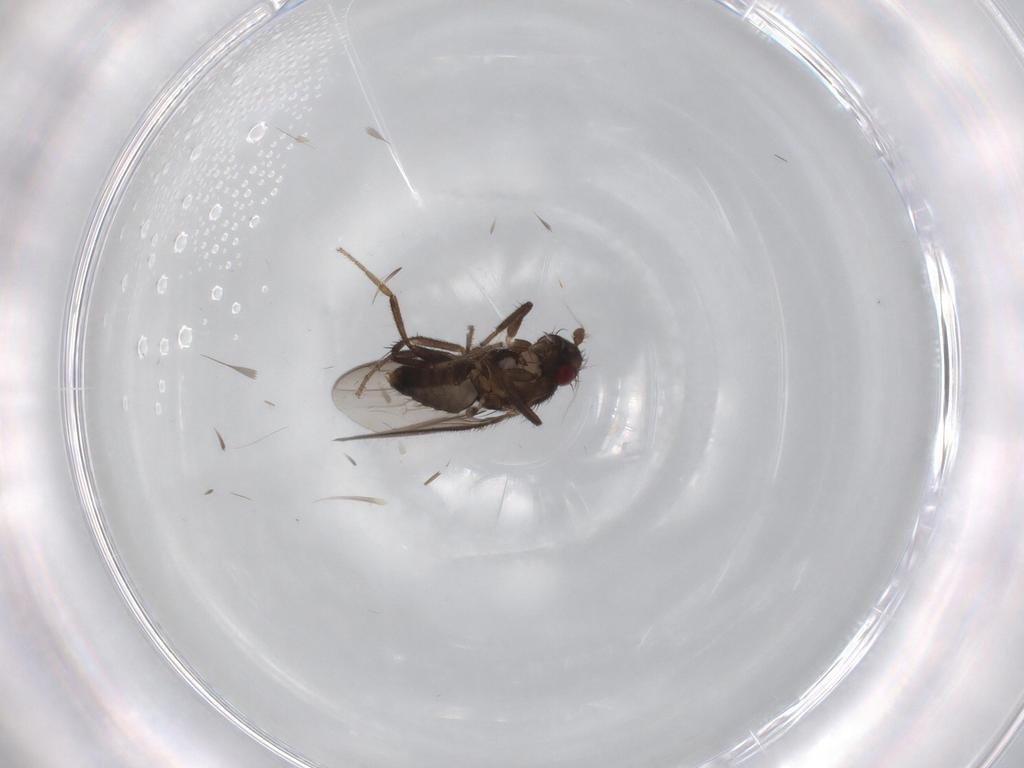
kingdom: Animalia
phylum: Arthropoda
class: Insecta
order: Diptera
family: Sphaeroceridae
